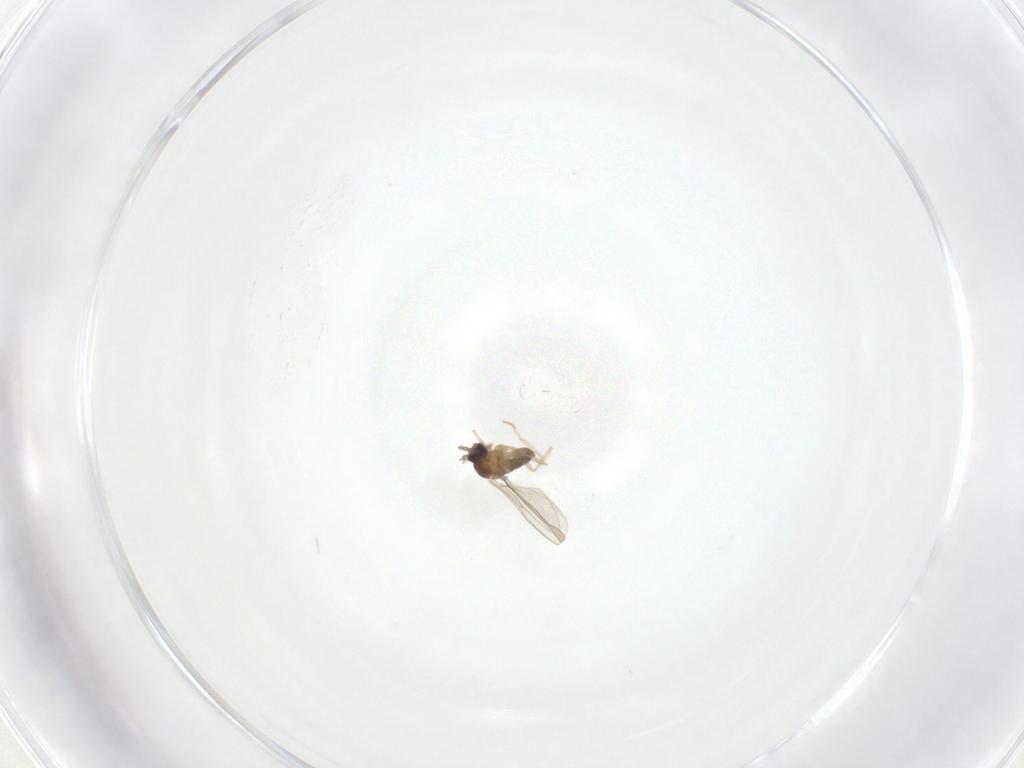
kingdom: Animalia
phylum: Arthropoda
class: Insecta
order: Diptera
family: Cecidomyiidae
